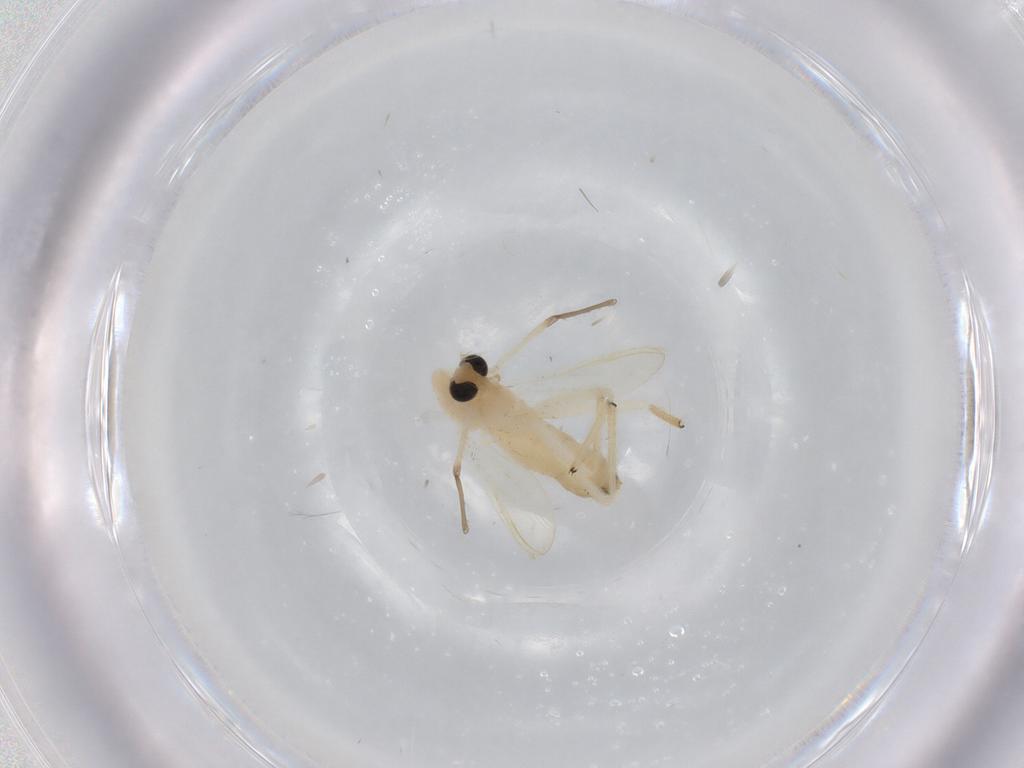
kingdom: Animalia
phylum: Arthropoda
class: Insecta
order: Diptera
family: Chironomidae
